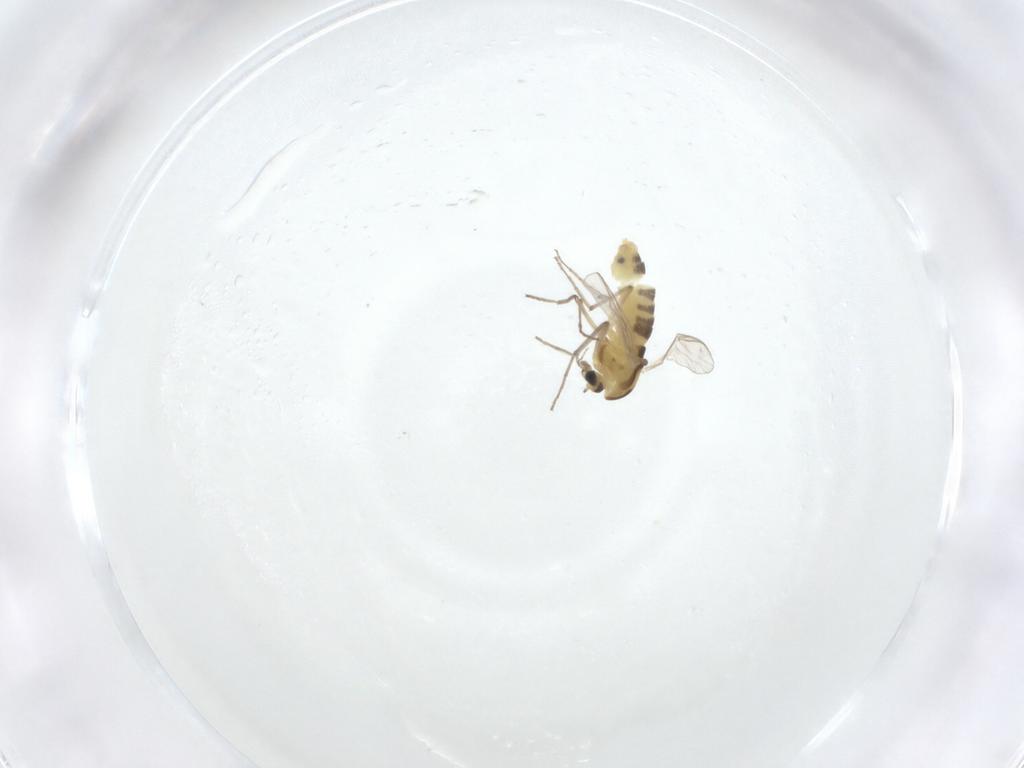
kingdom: Animalia
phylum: Arthropoda
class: Insecta
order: Diptera
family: Chironomidae
